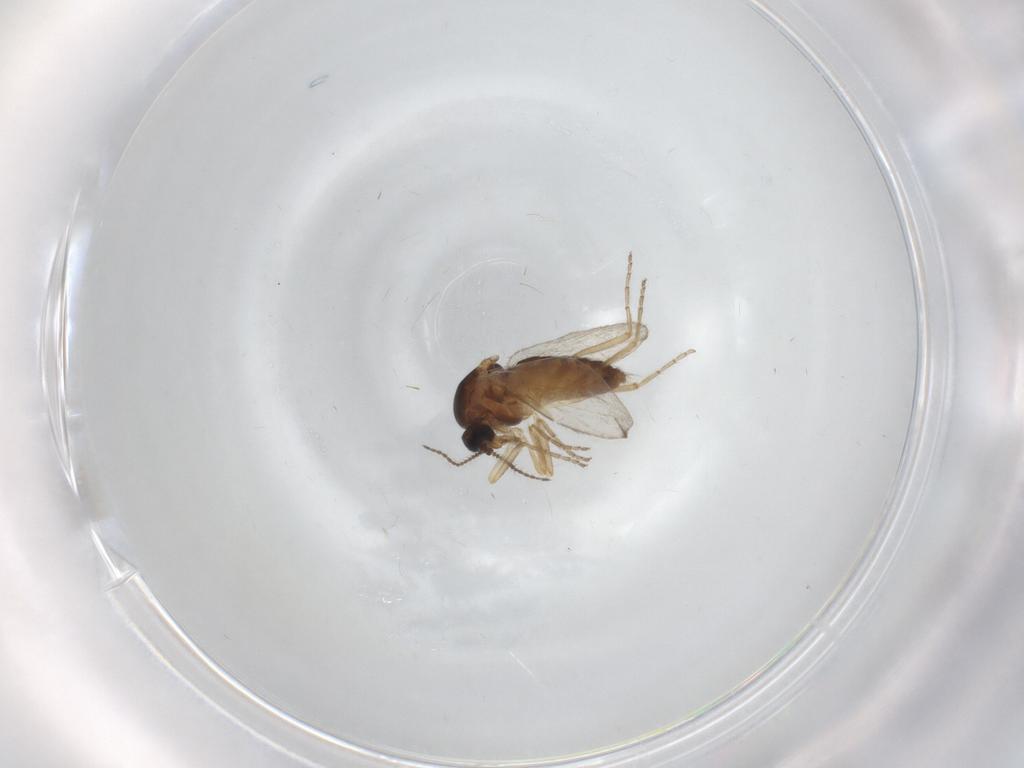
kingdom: Animalia
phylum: Arthropoda
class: Insecta
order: Diptera
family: Ceratopogonidae
